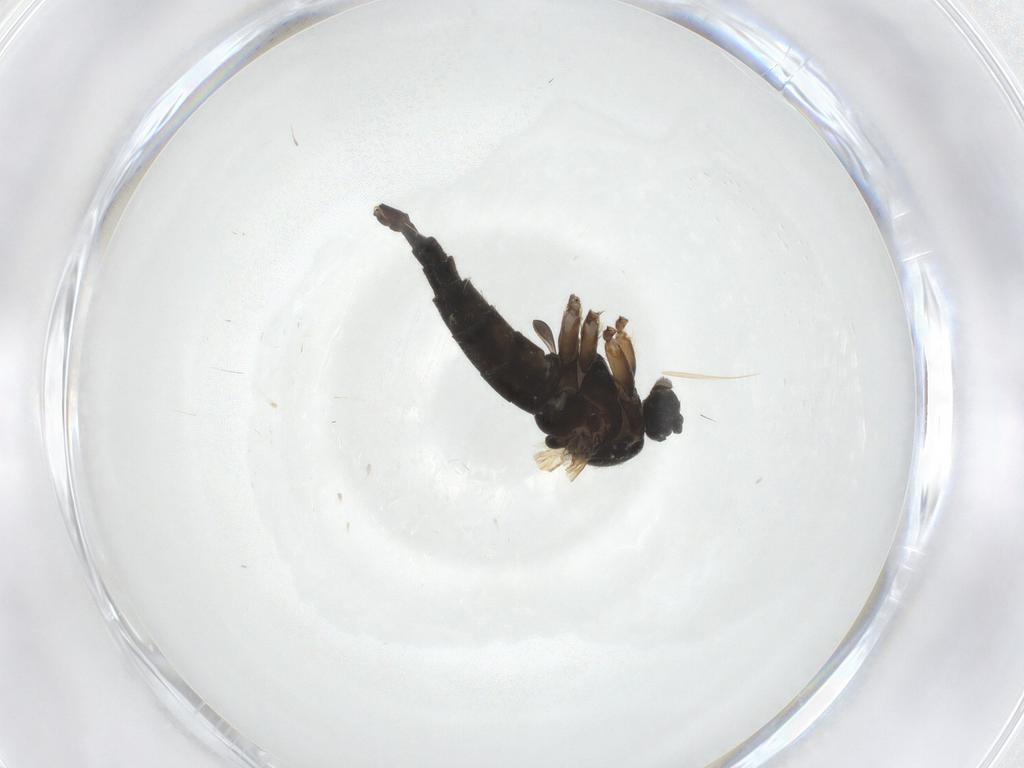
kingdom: Animalia
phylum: Arthropoda
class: Insecta
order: Diptera
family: Sciaridae
